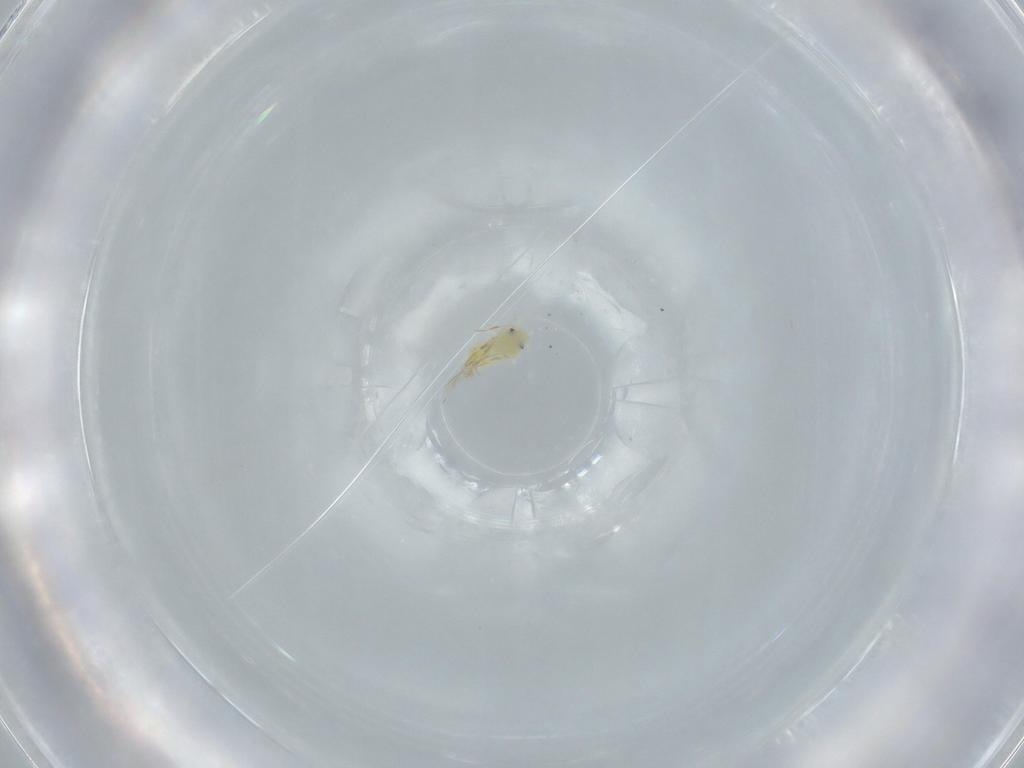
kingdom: Animalia
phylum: Arthropoda
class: Insecta
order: Hemiptera
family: Aleyrodidae
